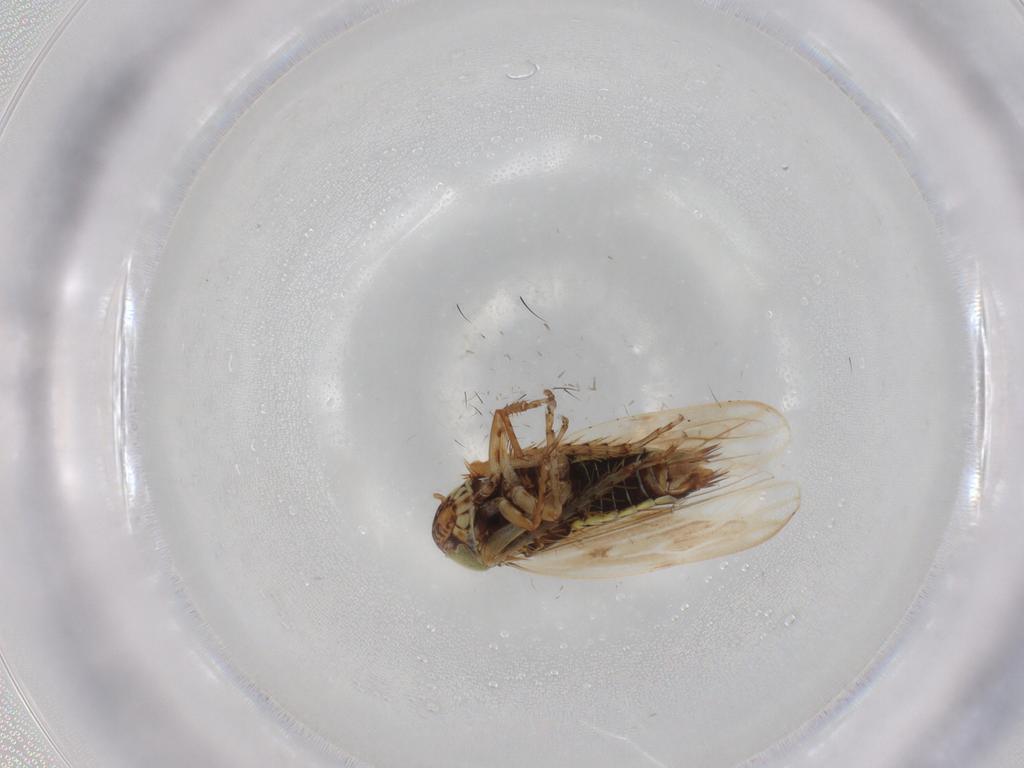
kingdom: Animalia
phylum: Arthropoda
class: Insecta
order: Hemiptera
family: Cicadellidae
